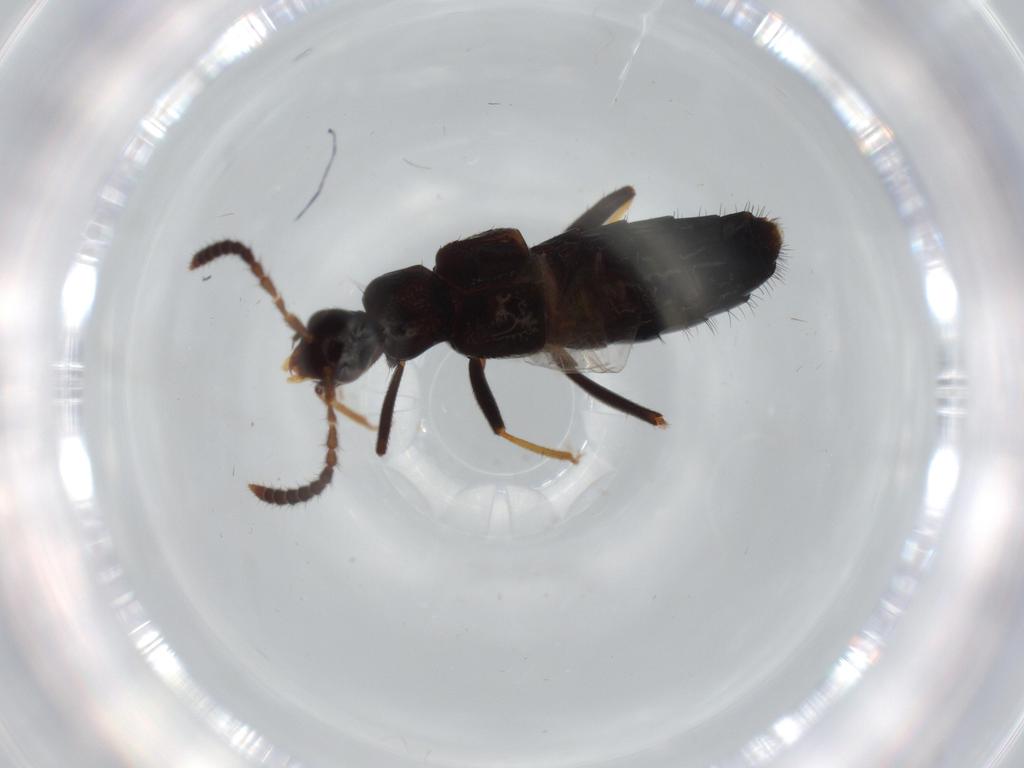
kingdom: Animalia
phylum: Arthropoda
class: Insecta
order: Coleoptera
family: Staphylinidae
